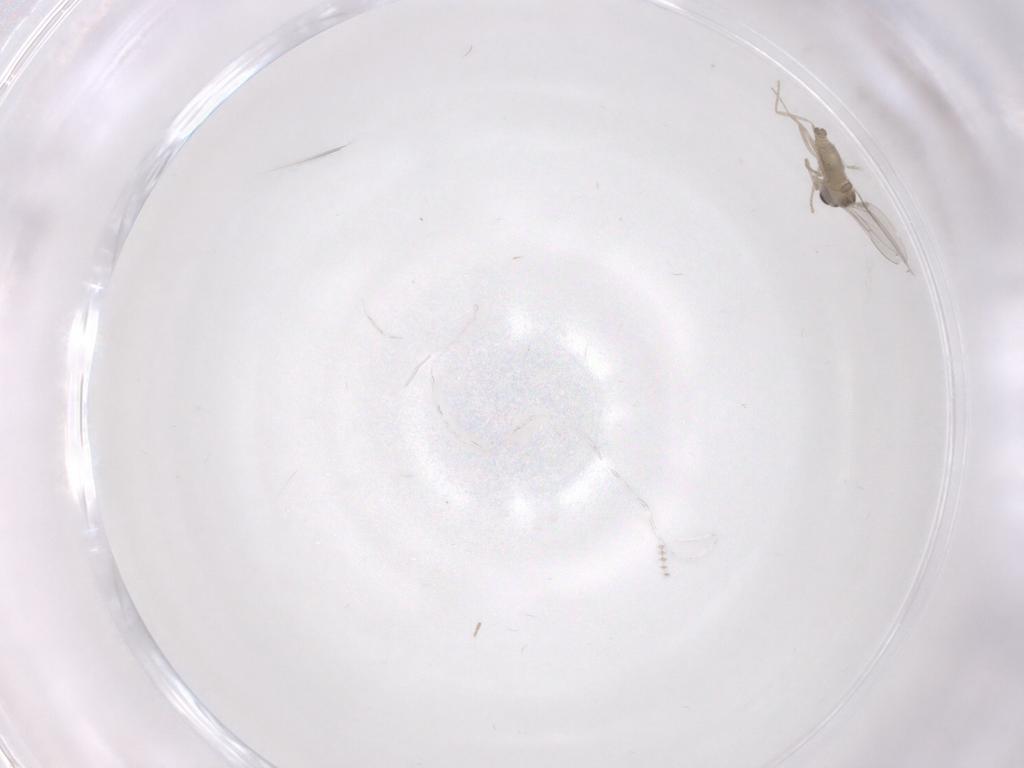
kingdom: Animalia
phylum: Arthropoda
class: Insecta
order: Diptera
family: Cecidomyiidae
